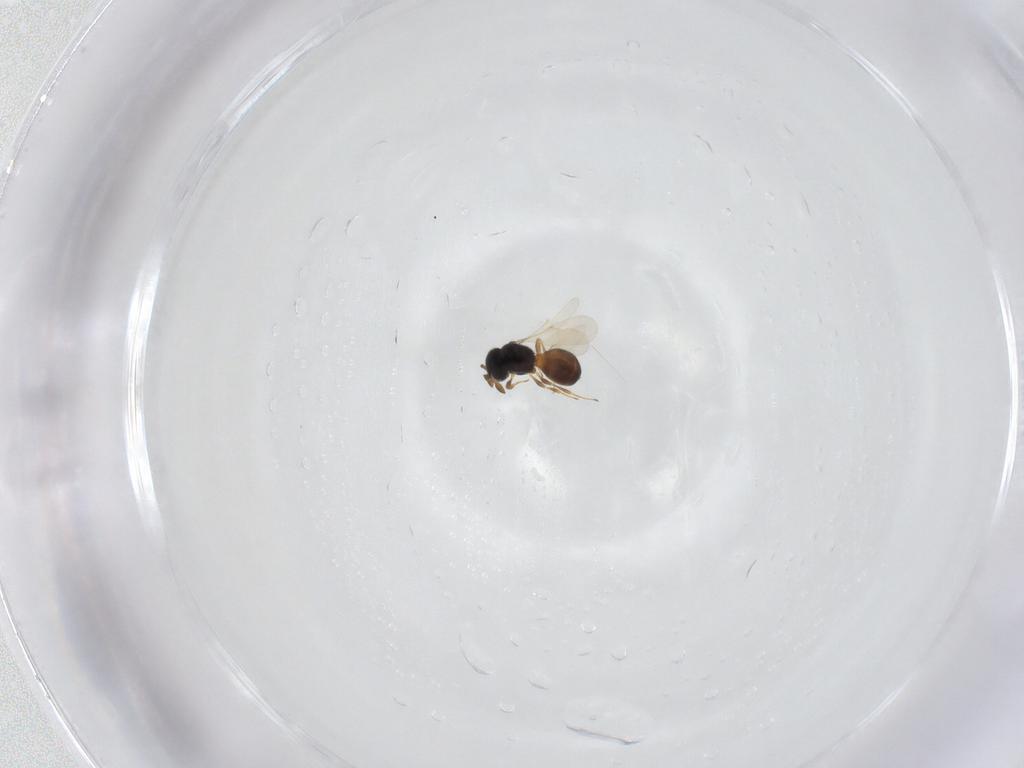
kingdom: Animalia
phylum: Arthropoda
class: Insecta
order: Hymenoptera
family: Scelionidae
